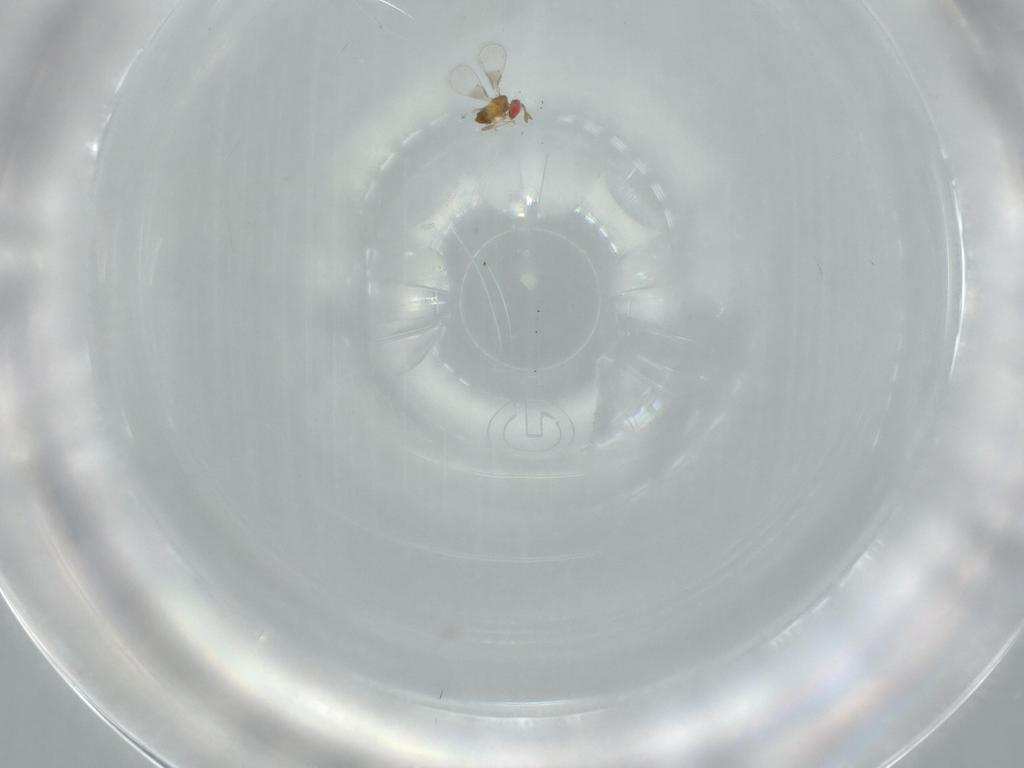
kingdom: Animalia
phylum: Arthropoda
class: Insecta
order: Hymenoptera
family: Trichogrammatidae
